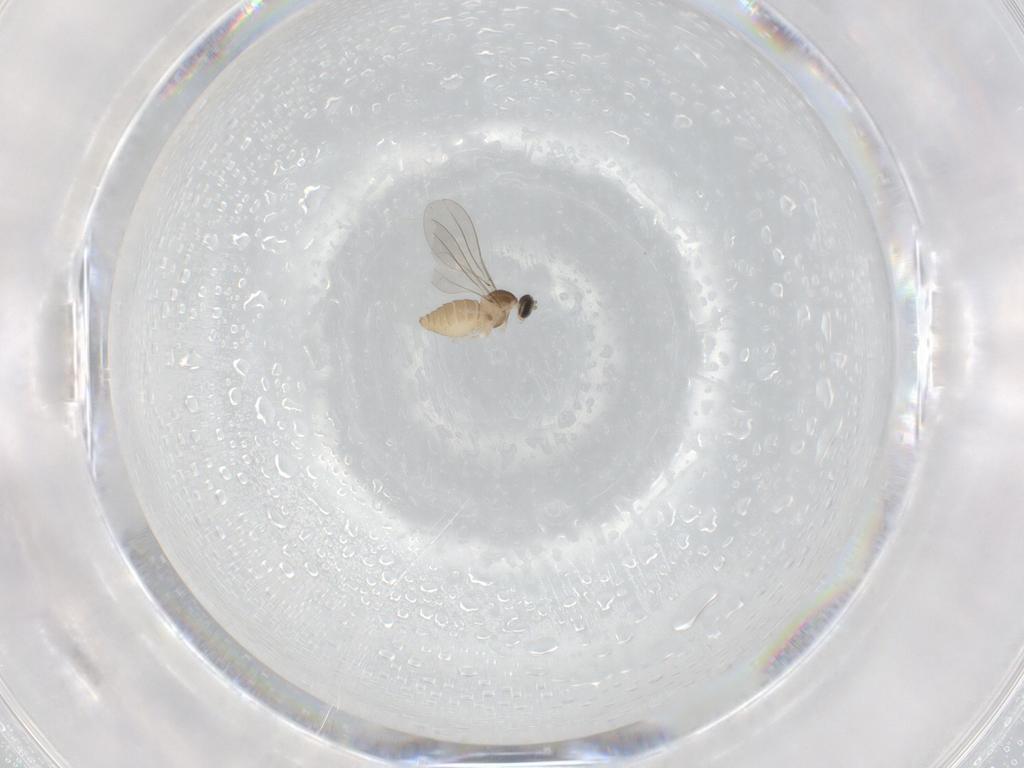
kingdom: Animalia
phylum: Arthropoda
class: Insecta
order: Diptera
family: Cecidomyiidae
